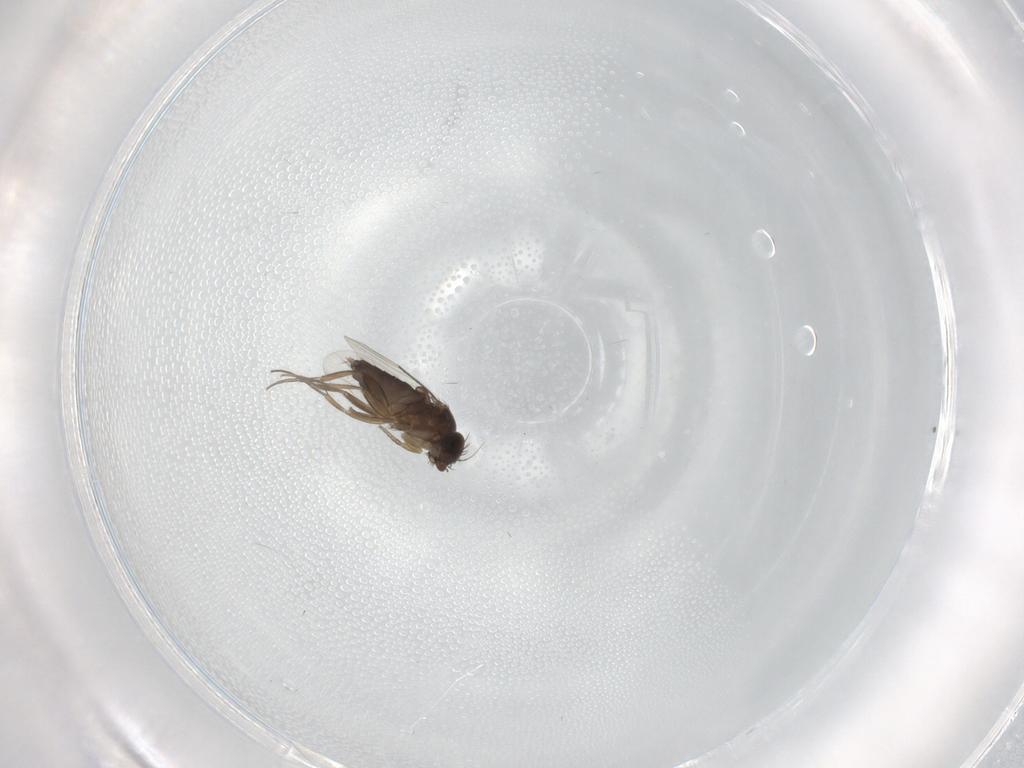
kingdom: Animalia
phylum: Arthropoda
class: Insecta
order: Diptera
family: Phoridae
